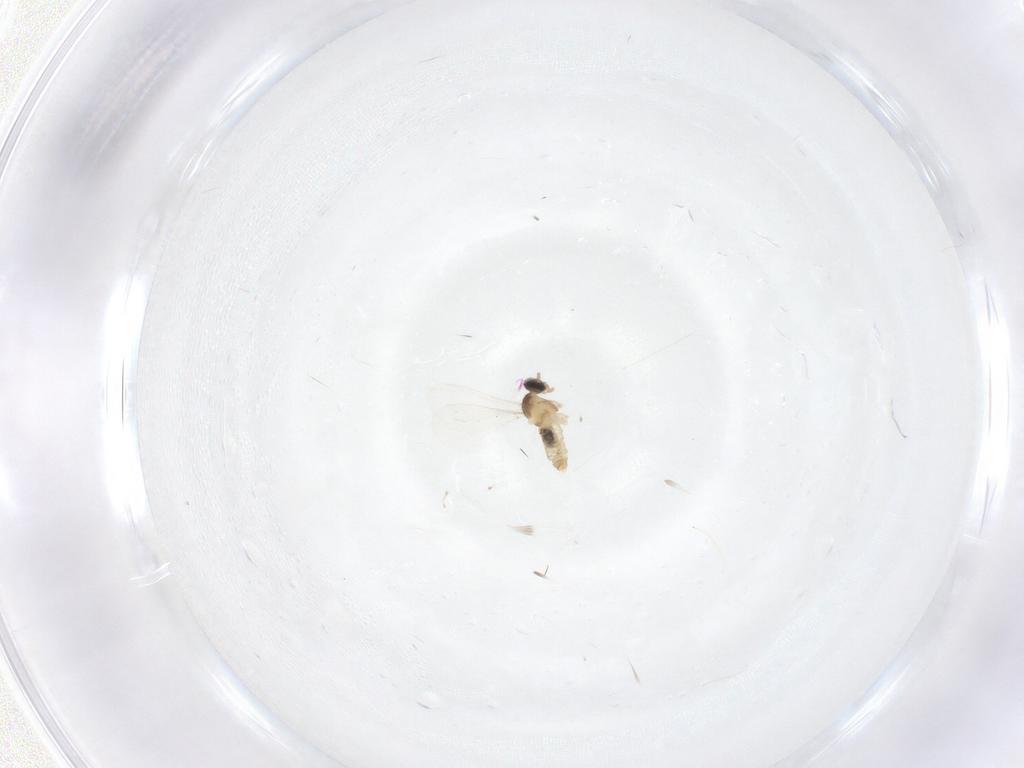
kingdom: Animalia
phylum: Arthropoda
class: Insecta
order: Diptera
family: Cecidomyiidae
